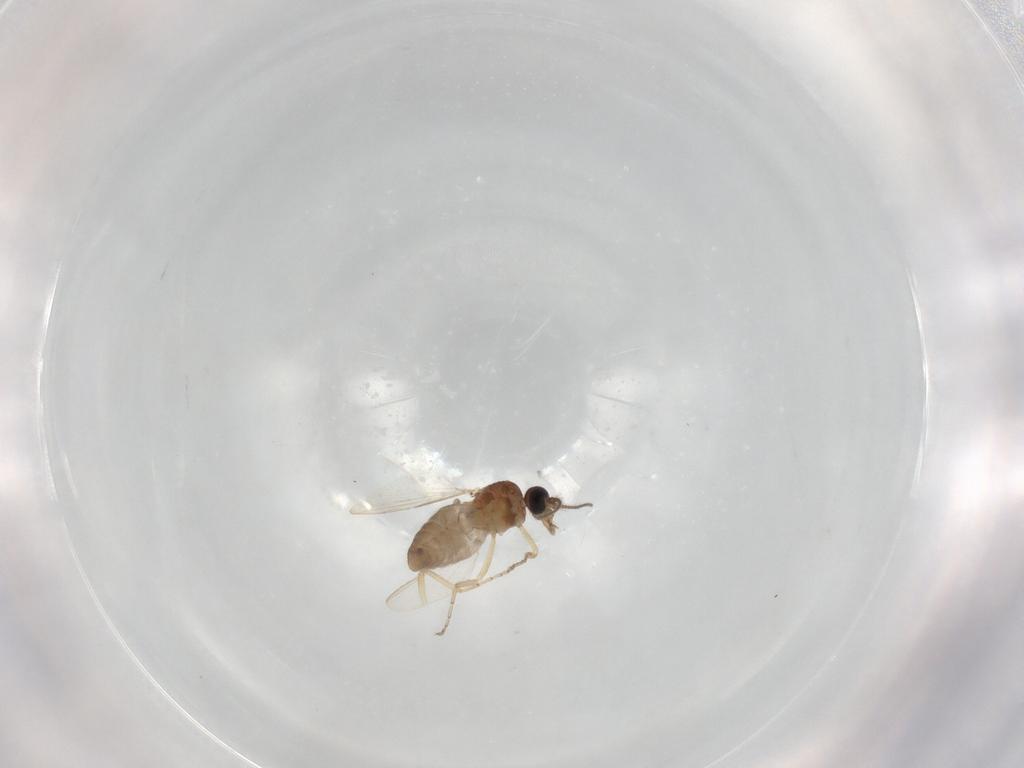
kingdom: Animalia
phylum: Arthropoda
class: Insecta
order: Diptera
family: Ceratopogonidae
